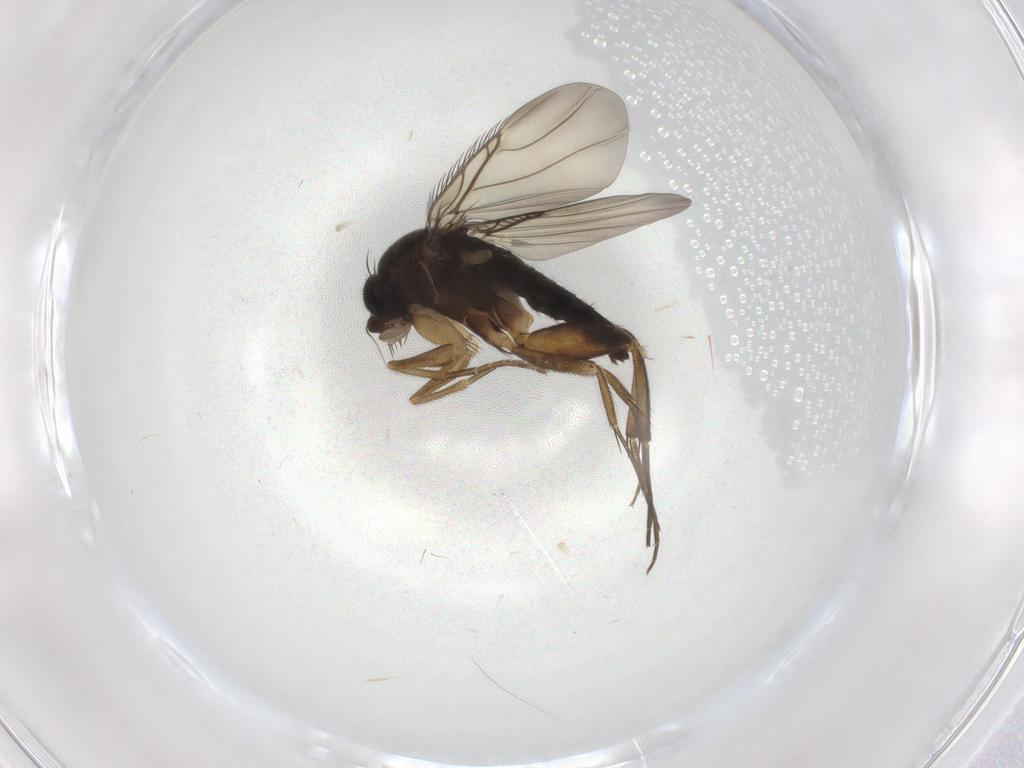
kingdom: Animalia
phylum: Arthropoda
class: Insecta
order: Diptera
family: Phoridae
